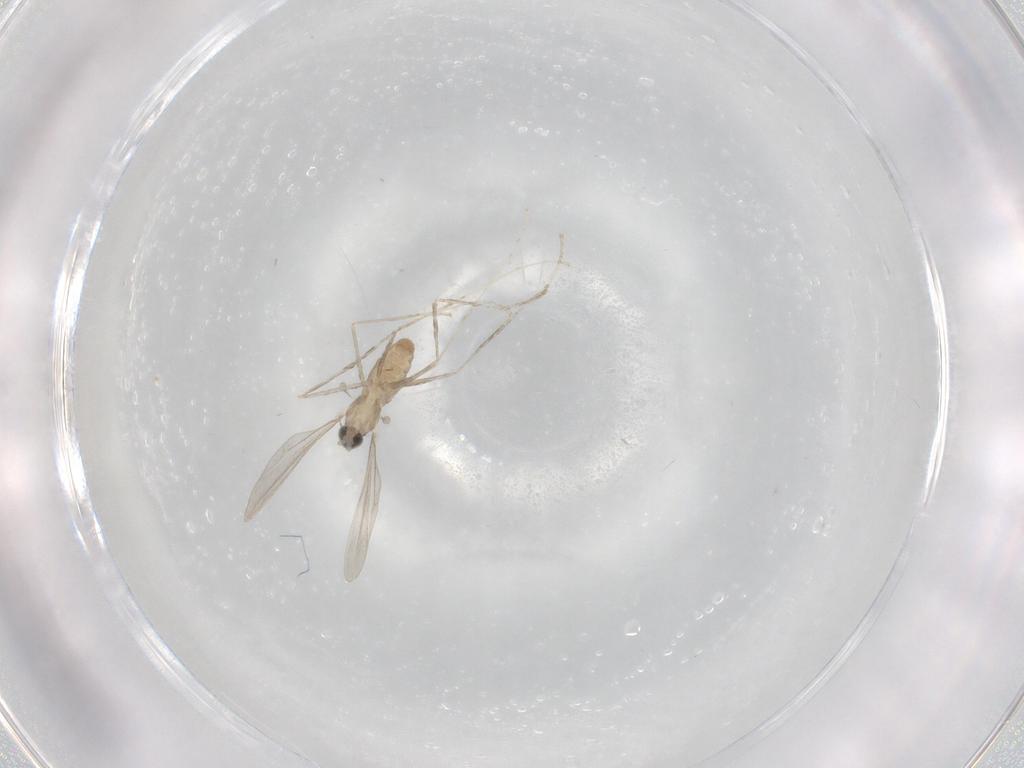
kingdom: Animalia
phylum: Arthropoda
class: Insecta
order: Diptera
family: Cecidomyiidae
